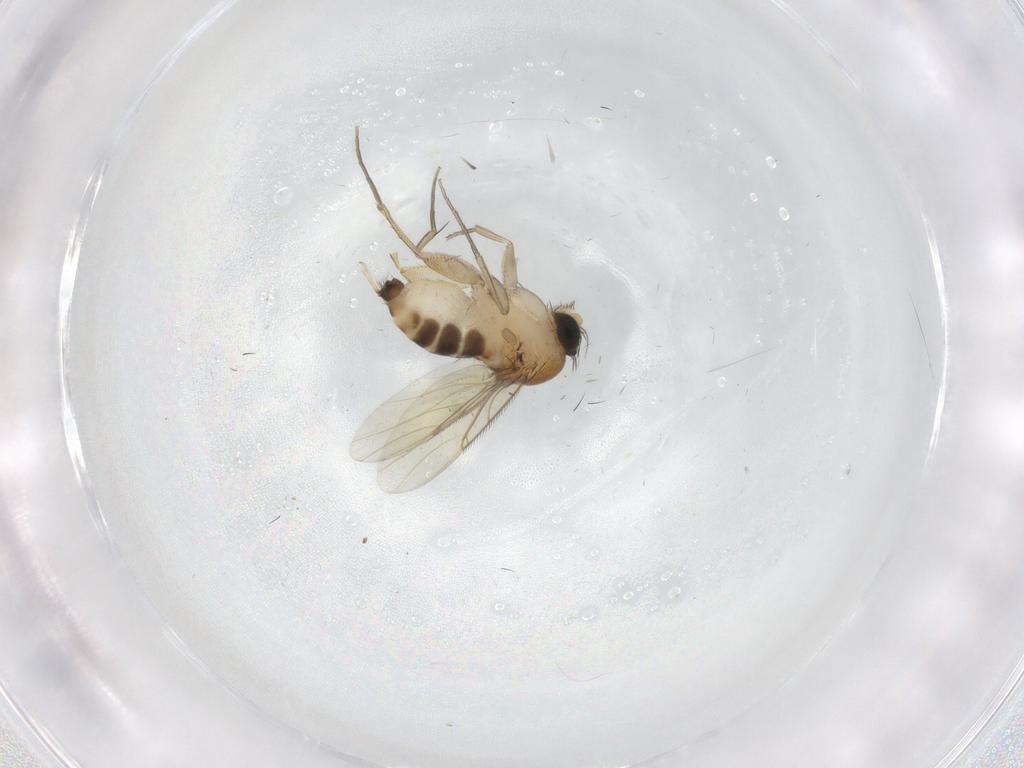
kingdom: Animalia
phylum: Arthropoda
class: Insecta
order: Diptera
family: Phoridae
